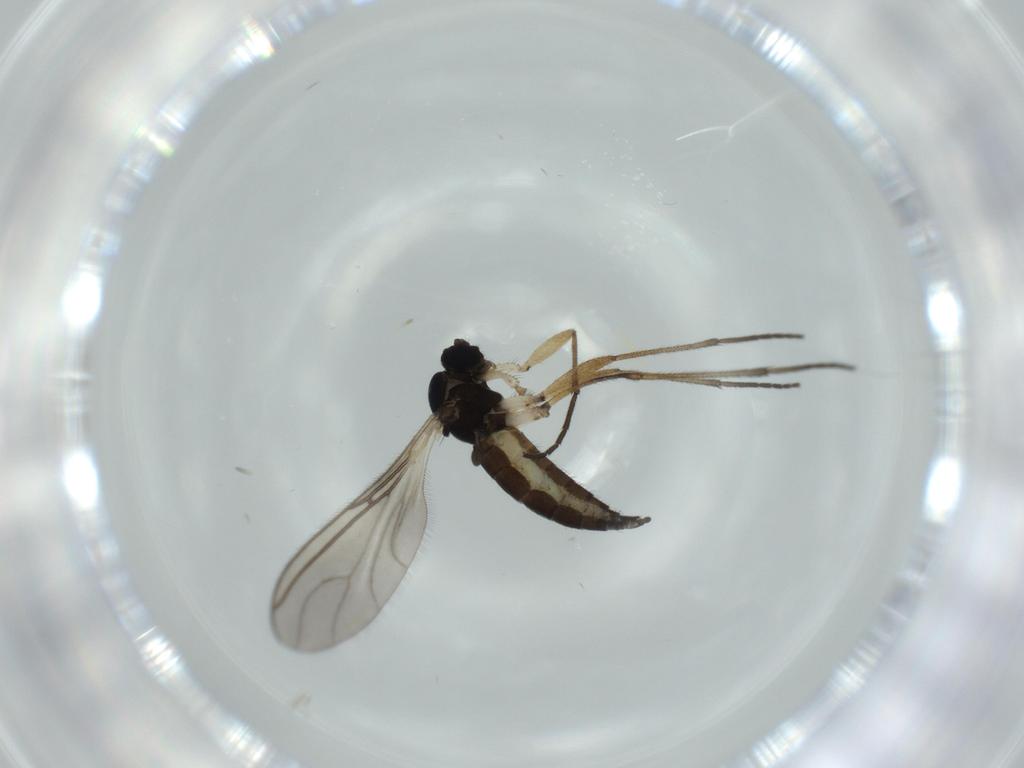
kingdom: Animalia
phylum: Arthropoda
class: Insecta
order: Diptera
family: Sciaridae
